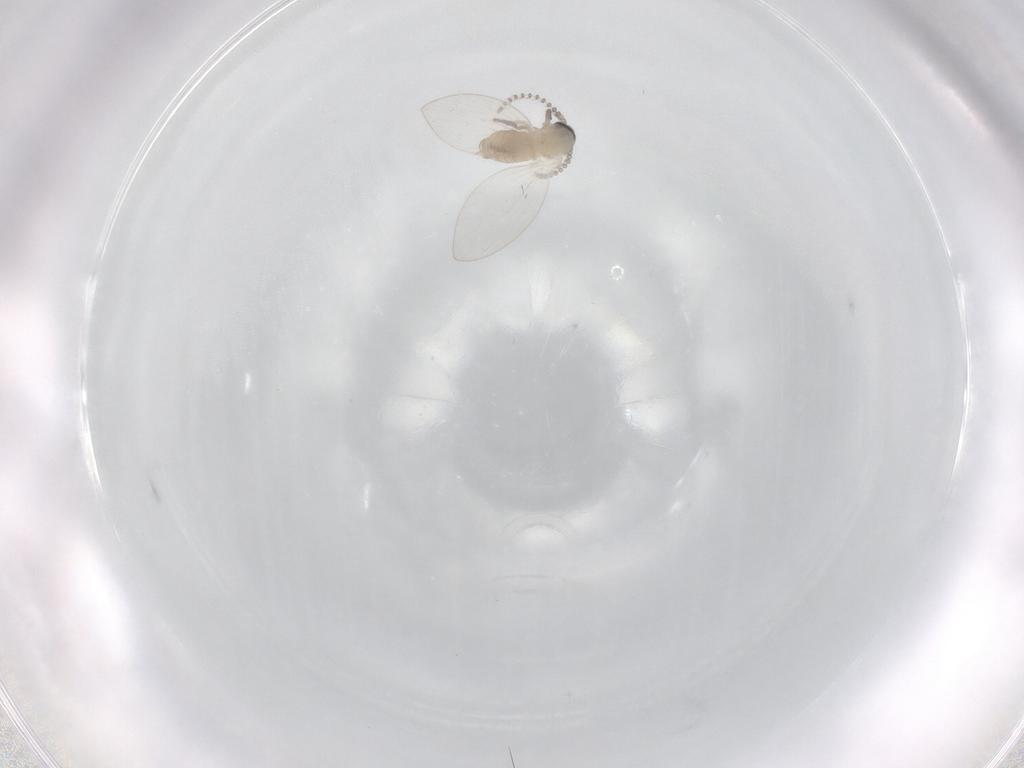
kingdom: Animalia
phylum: Arthropoda
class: Insecta
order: Diptera
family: Psychodidae
